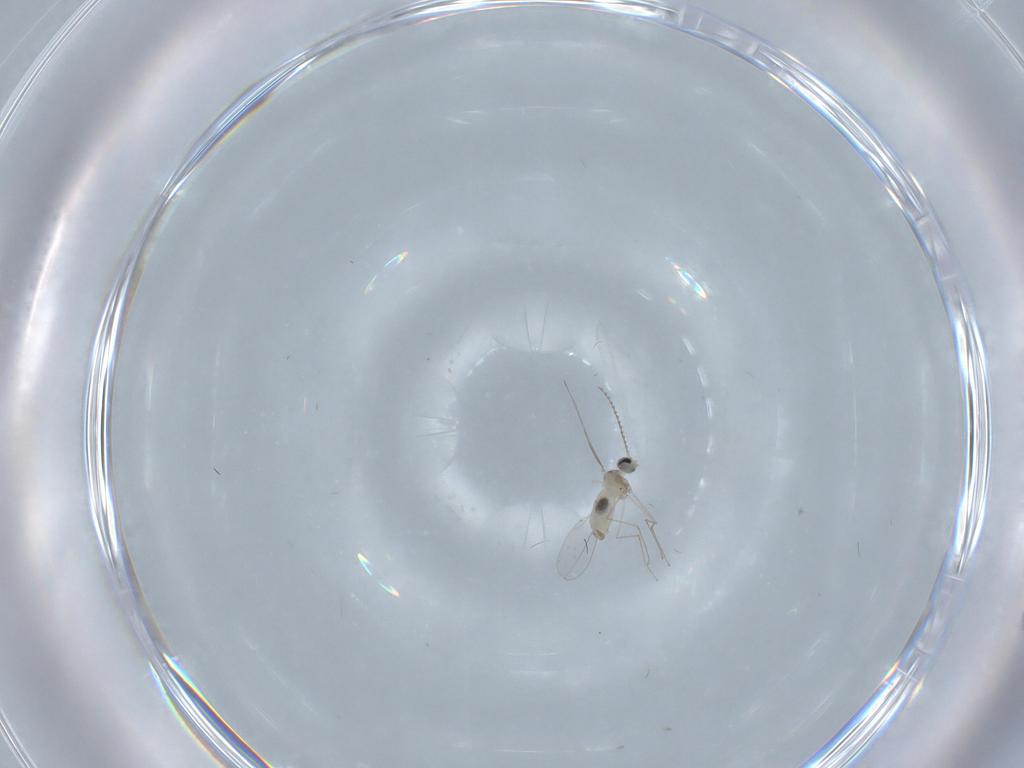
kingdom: Animalia
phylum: Arthropoda
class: Insecta
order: Diptera
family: Cecidomyiidae
